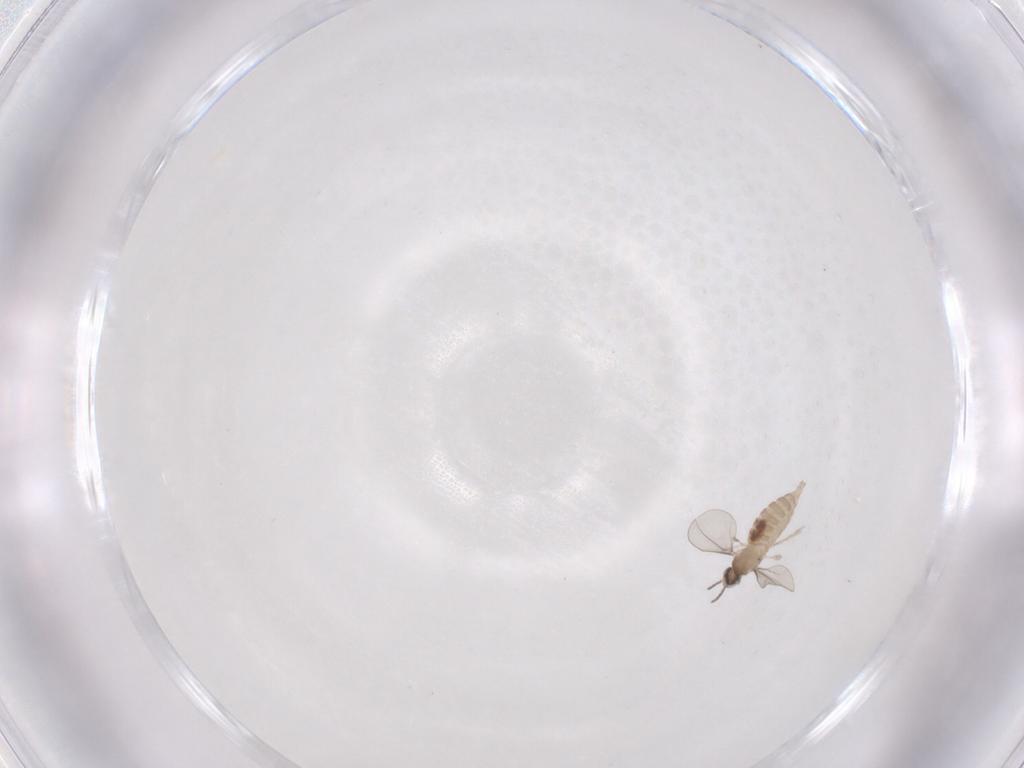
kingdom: Animalia
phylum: Arthropoda
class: Insecta
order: Diptera
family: Cecidomyiidae
